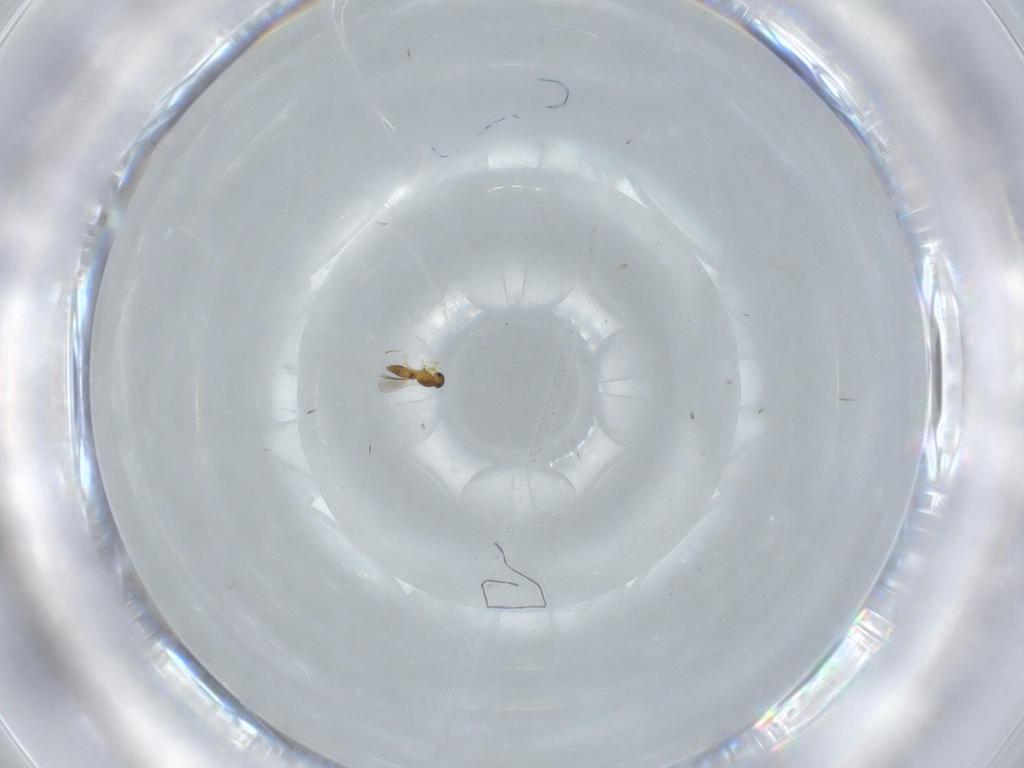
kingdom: Animalia
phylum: Arthropoda
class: Insecta
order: Hymenoptera
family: Platygastridae
